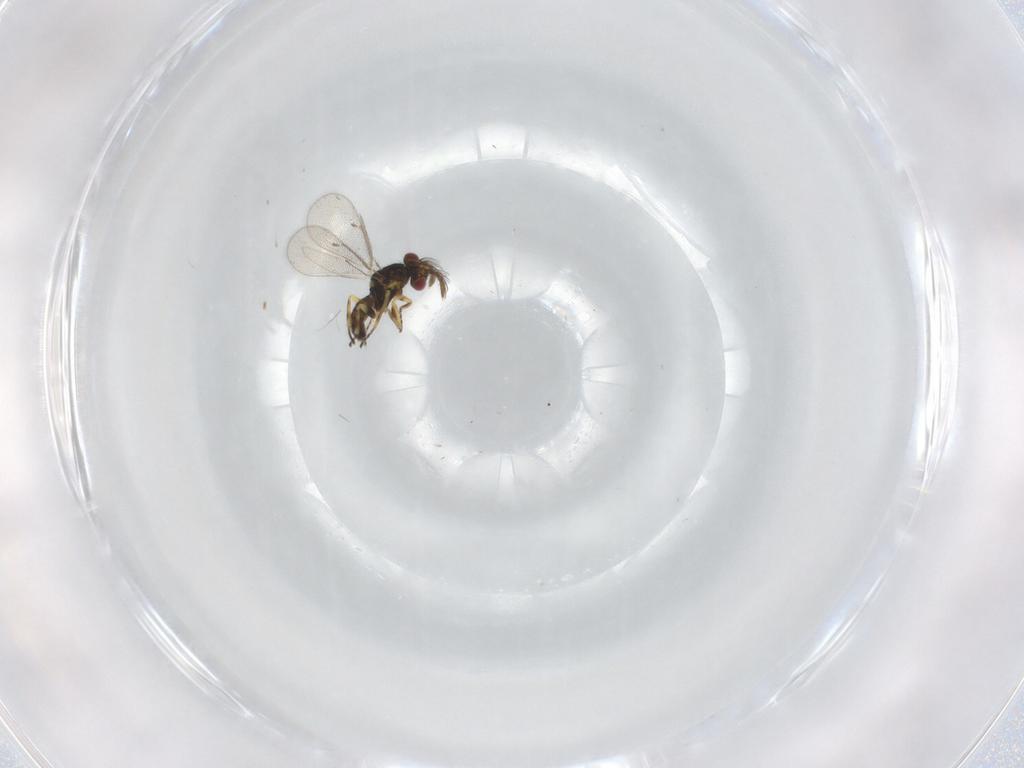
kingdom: Animalia
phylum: Arthropoda
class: Insecta
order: Hymenoptera
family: Eulophidae
